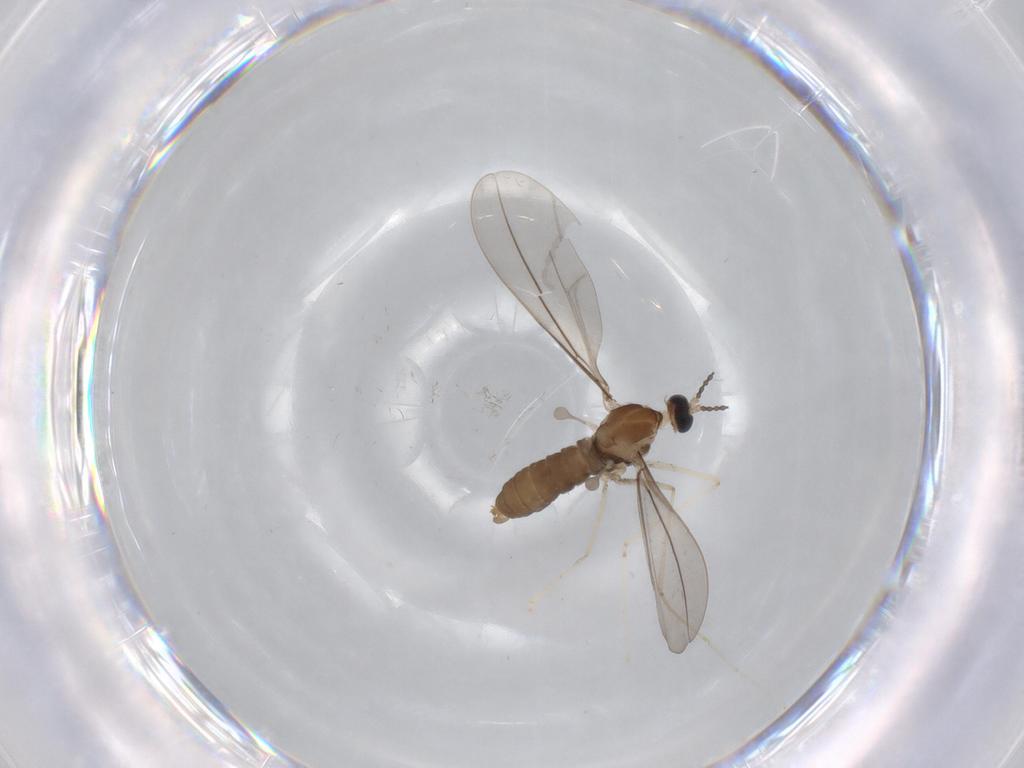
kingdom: Animalia
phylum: Arthropoda
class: Insecta
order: Diptera
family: Cecidomyiidae
